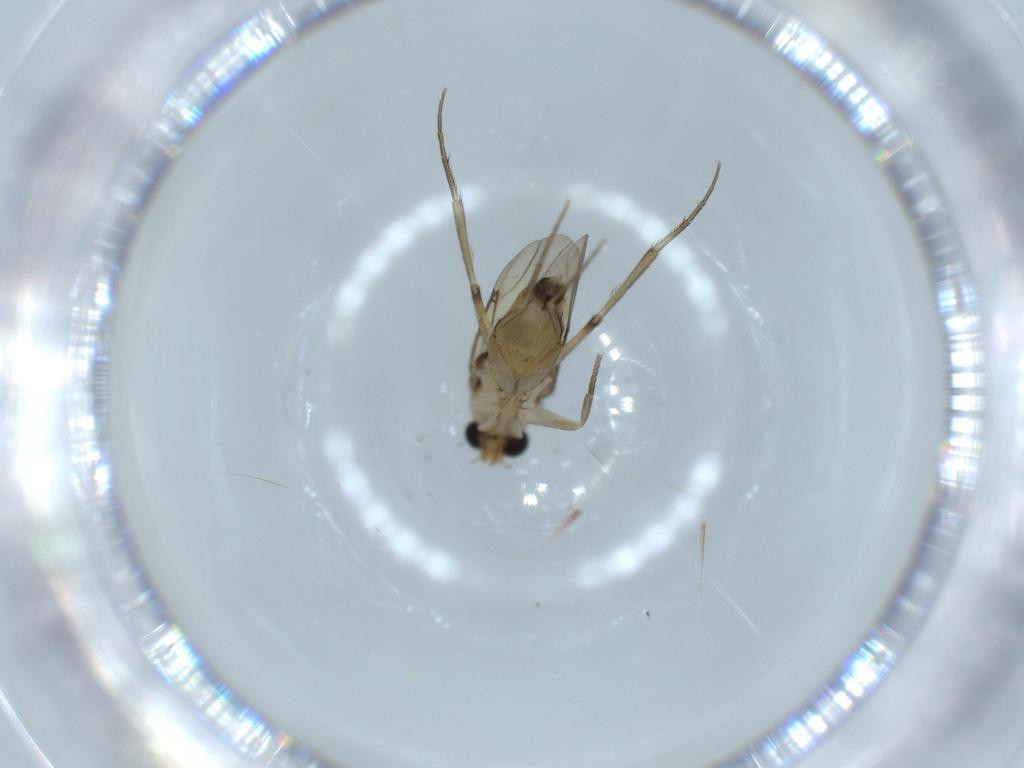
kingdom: Animalia
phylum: Arthropoda
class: Insecta
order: Diptera
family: Phoridae
